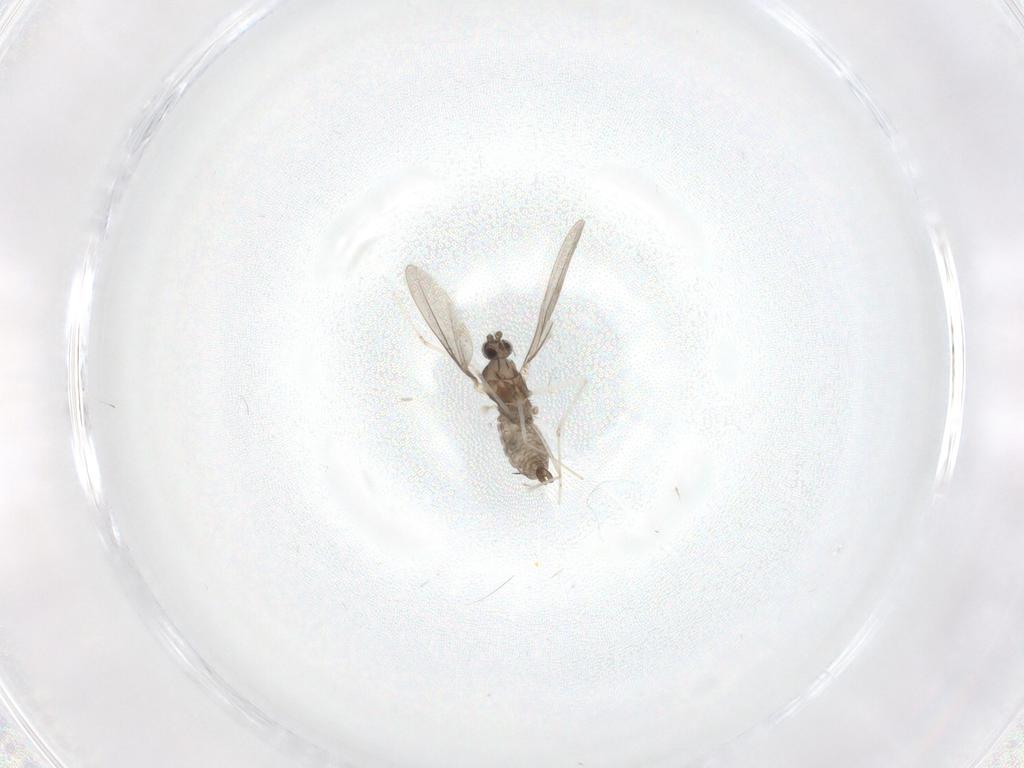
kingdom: Animalia
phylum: Arthropoda
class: Insecta
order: Diptera
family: Cecidomyiidae
